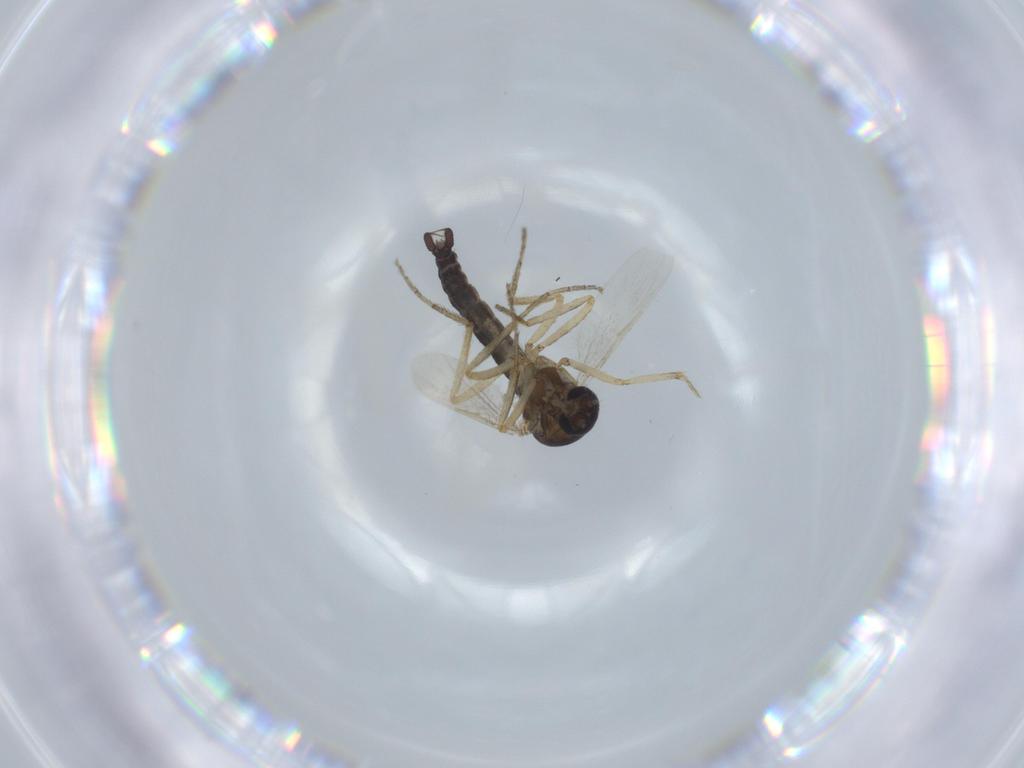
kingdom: Animalia
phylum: Arthropoda
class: Insecta
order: Diptera
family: Ceratopogonidae
